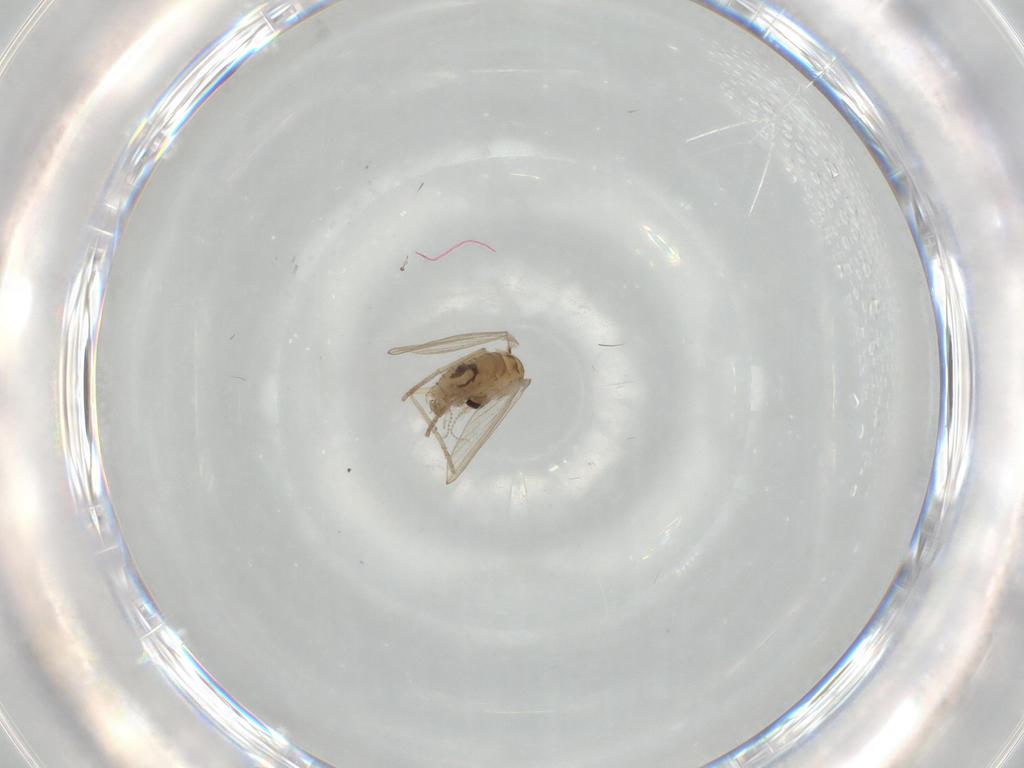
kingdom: Animalia
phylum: Arthropoda
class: Insecta
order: Diptera
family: Psychodidae
